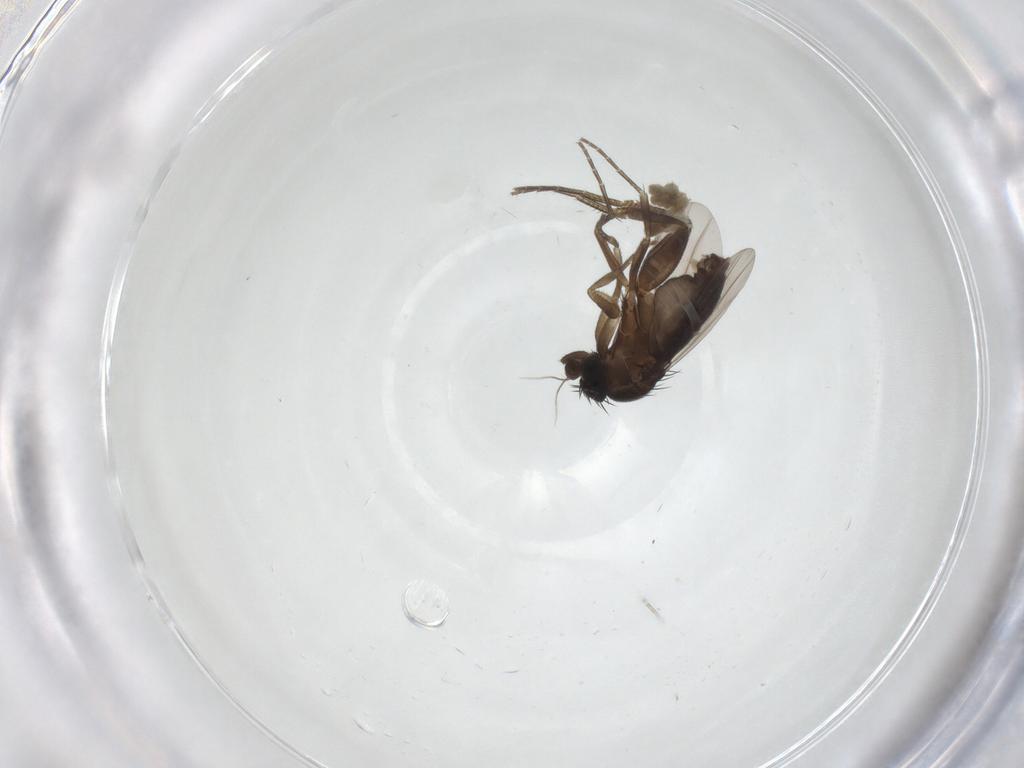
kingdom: Animalia
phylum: Arthropoda
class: Insecta
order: Diptera
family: Phoridae
